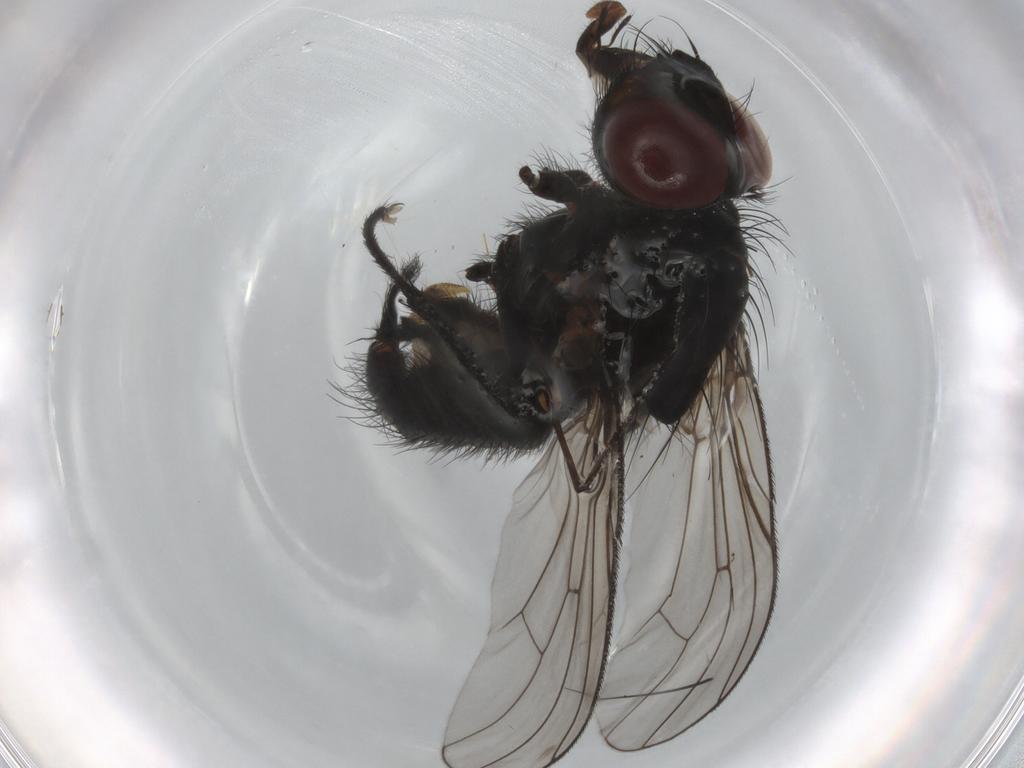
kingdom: Animalia
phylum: Arthropoda
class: Insecta
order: Diptera
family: Anthomyiidae
